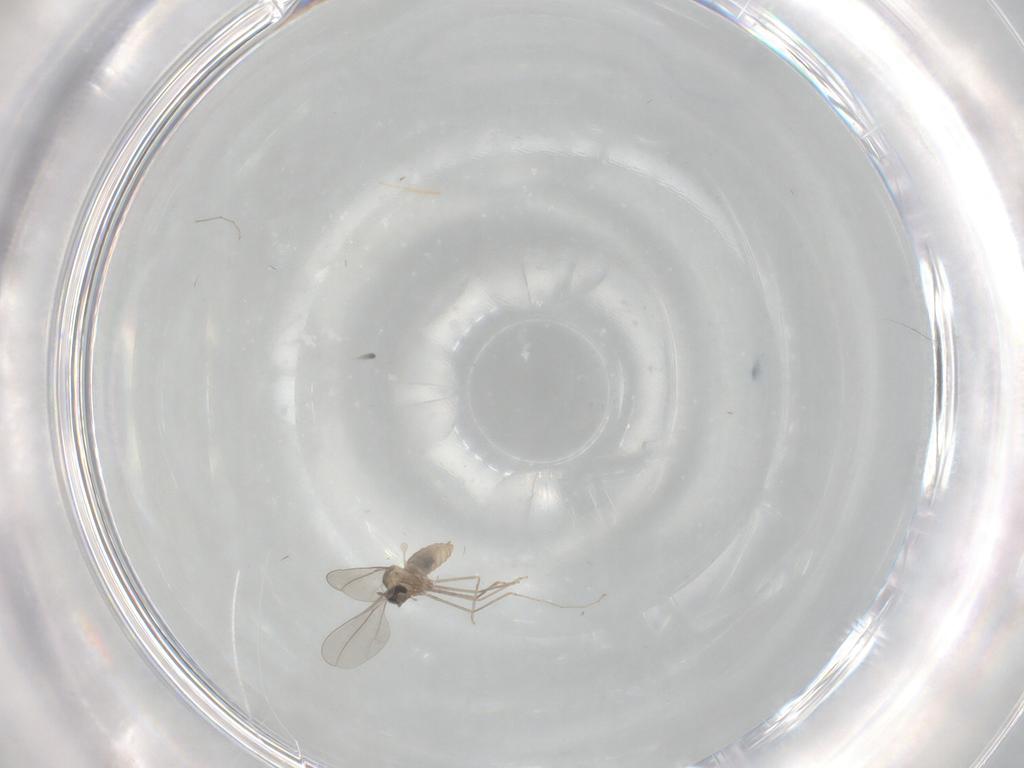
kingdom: Animalia
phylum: Arthropoda
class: Insecta
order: Diptera
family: Cecidomyiidae
